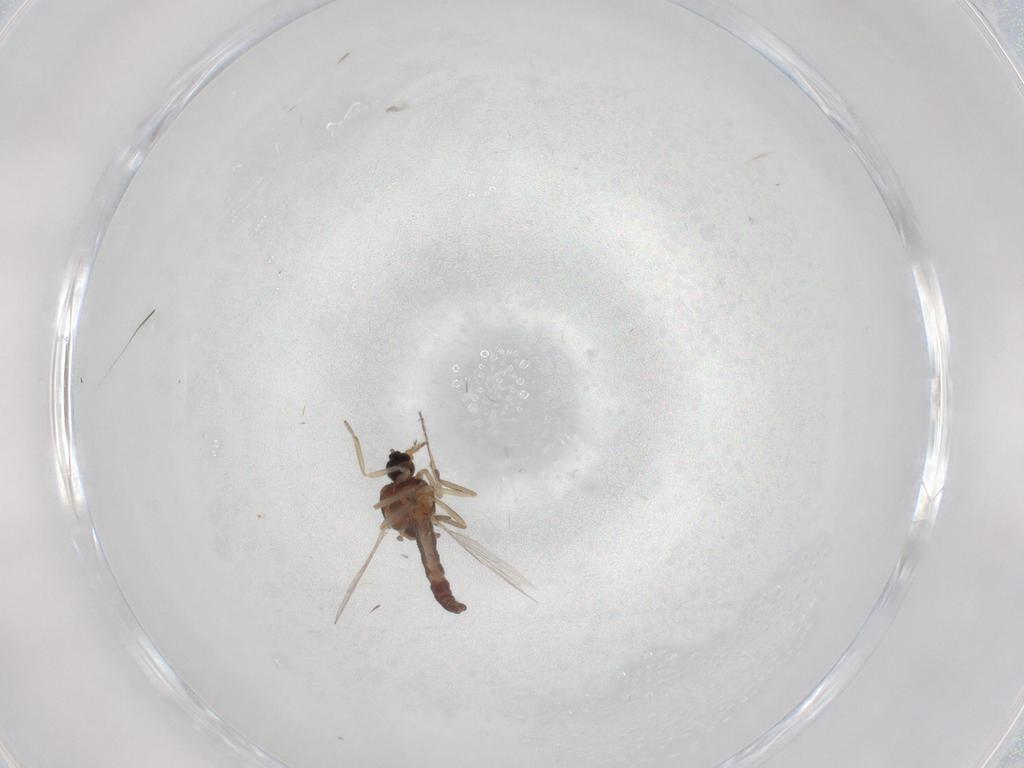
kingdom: Animalia
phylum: Arthropoda
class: Insecta
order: Diptera
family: Ceratopogonidae
